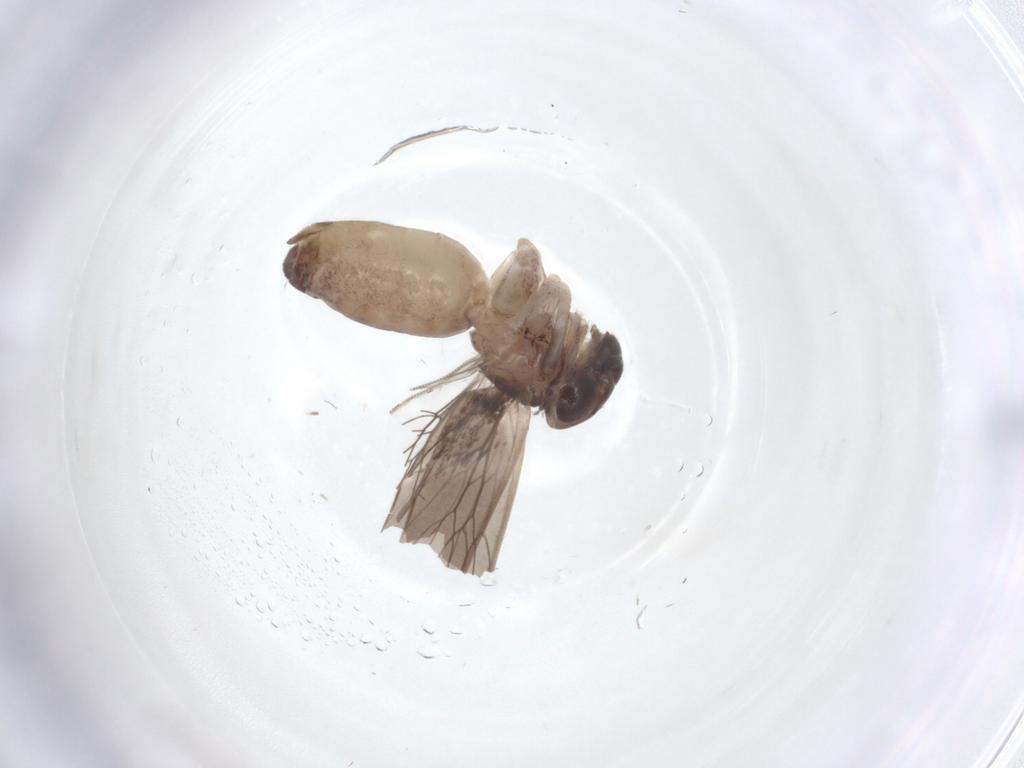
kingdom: Animalia
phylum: Arthropoda
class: Insecta
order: Psocodea
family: Lepidopsocidae
